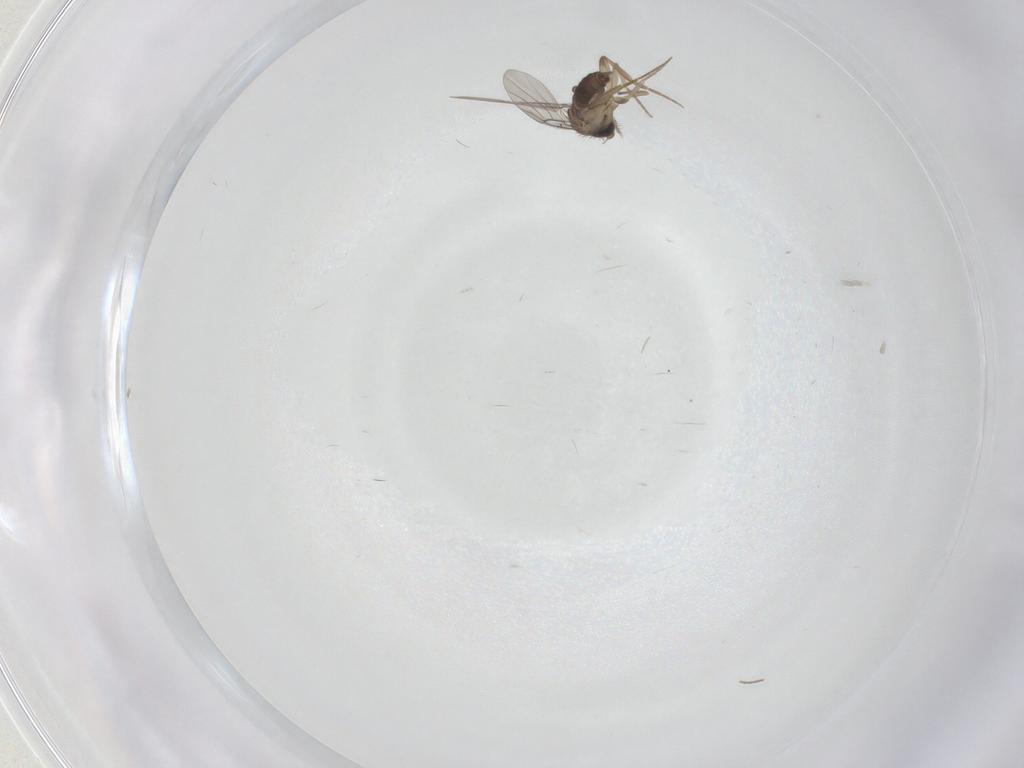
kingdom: Animalia
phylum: Arthropoda
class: Insecta
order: Diptera
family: Chironomidae
